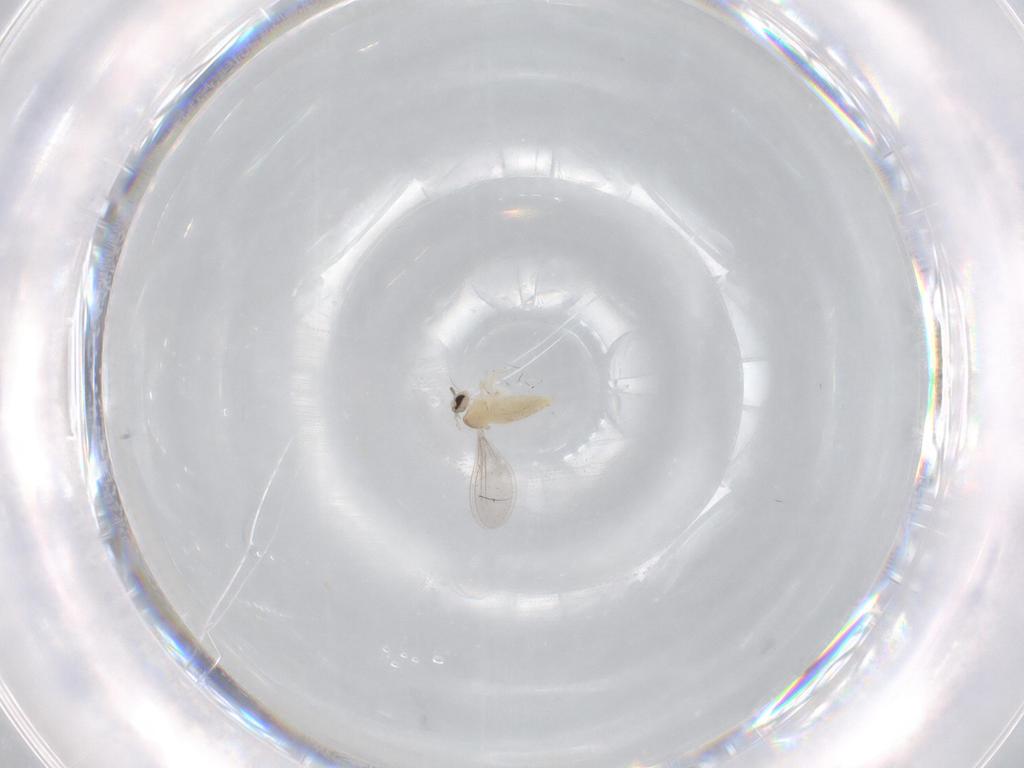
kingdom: Animalia
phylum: Arthropoda
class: Insecta
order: Diptera
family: Cecidomyiidae
